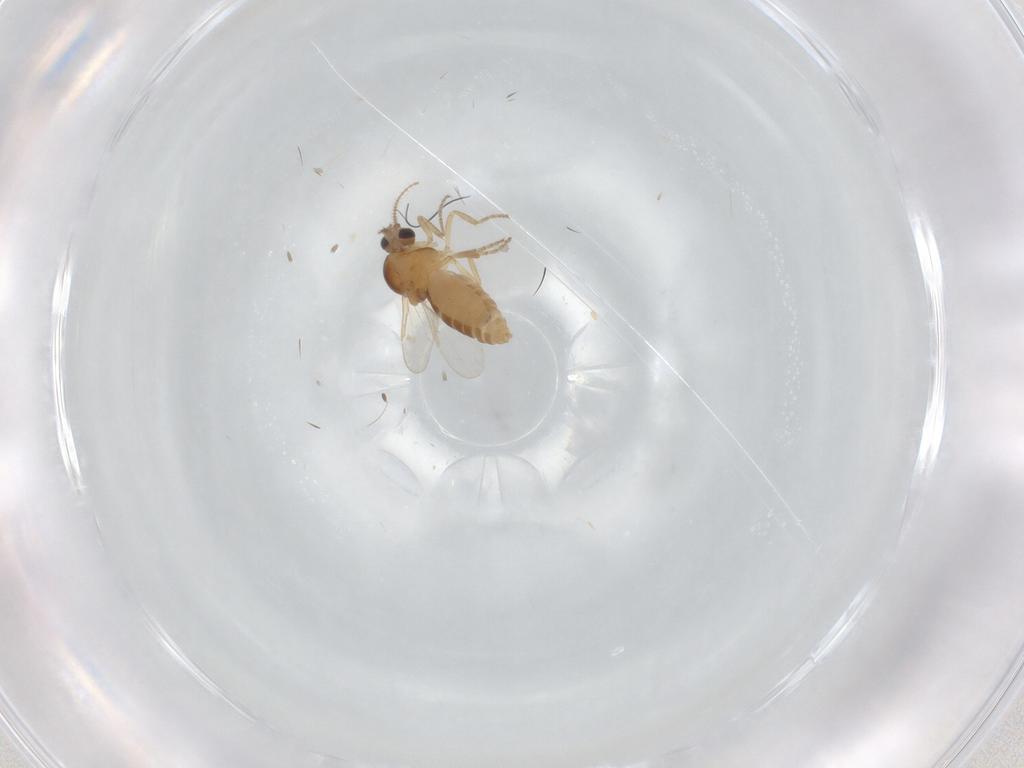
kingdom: Animalia
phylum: Arthropoda
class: Insecta
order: Diptera
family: Ceratopogonidae
